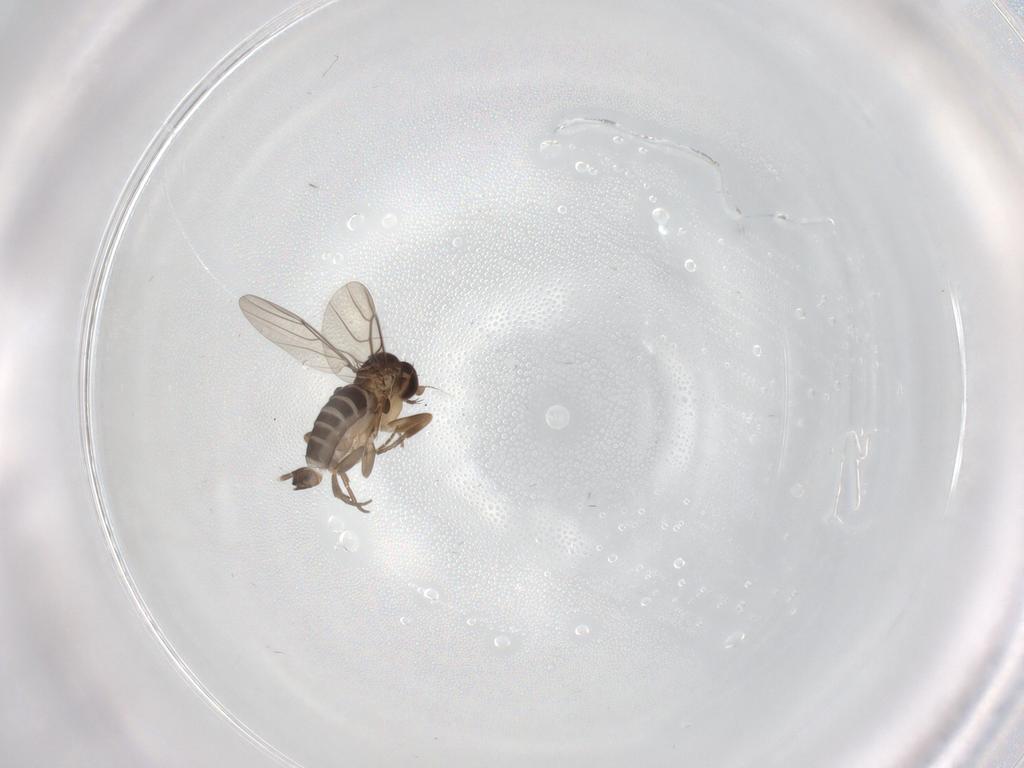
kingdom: Animalia
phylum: Arthropoda
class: Insecta
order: Diptera
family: Phoridae
